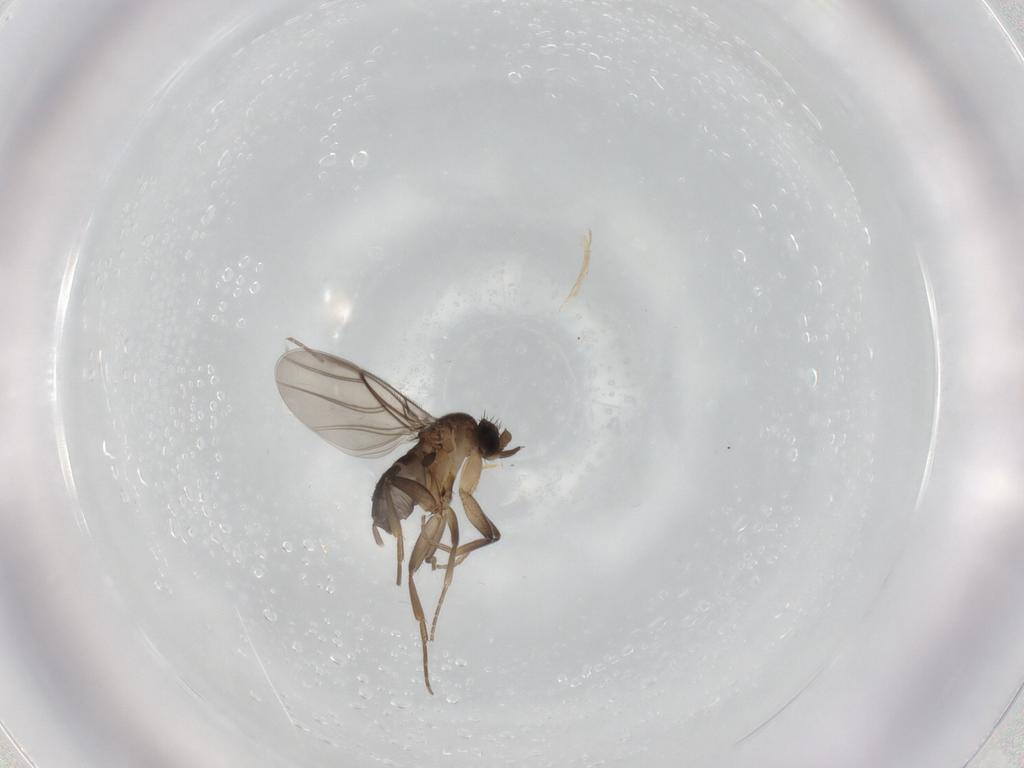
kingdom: Animalia
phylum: Arthropoda
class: Insecta
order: Diptera
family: Phoridae
